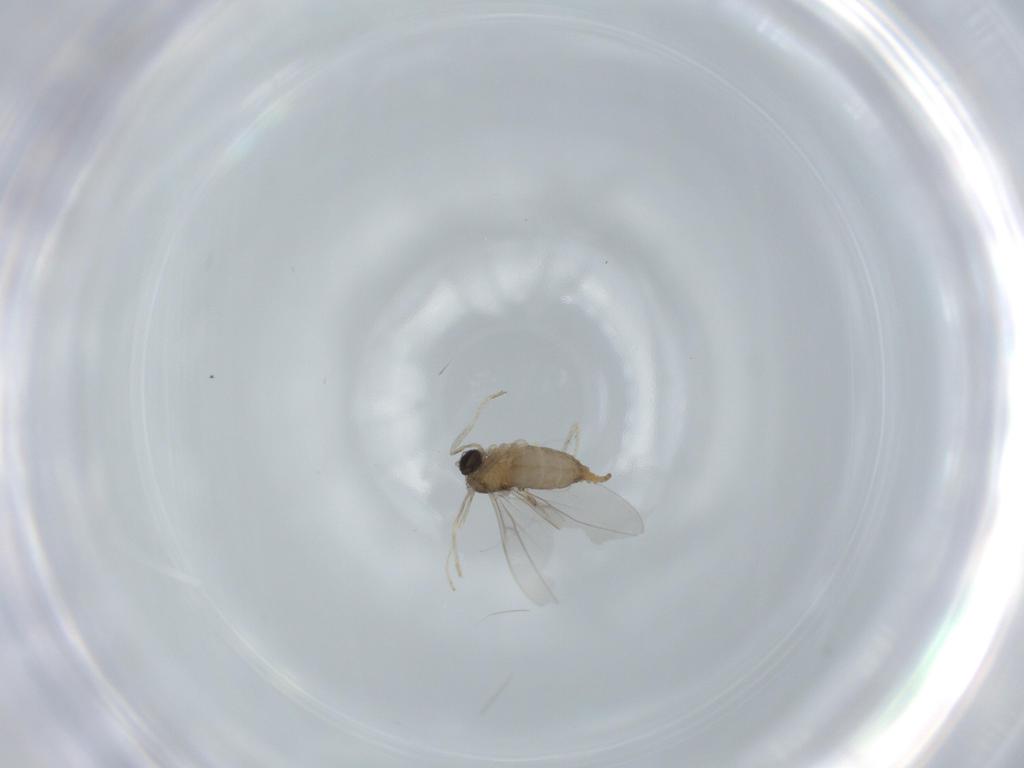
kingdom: Animalia
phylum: Arthropoda
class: Insecta
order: Diptera
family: Cecidomyiidae
